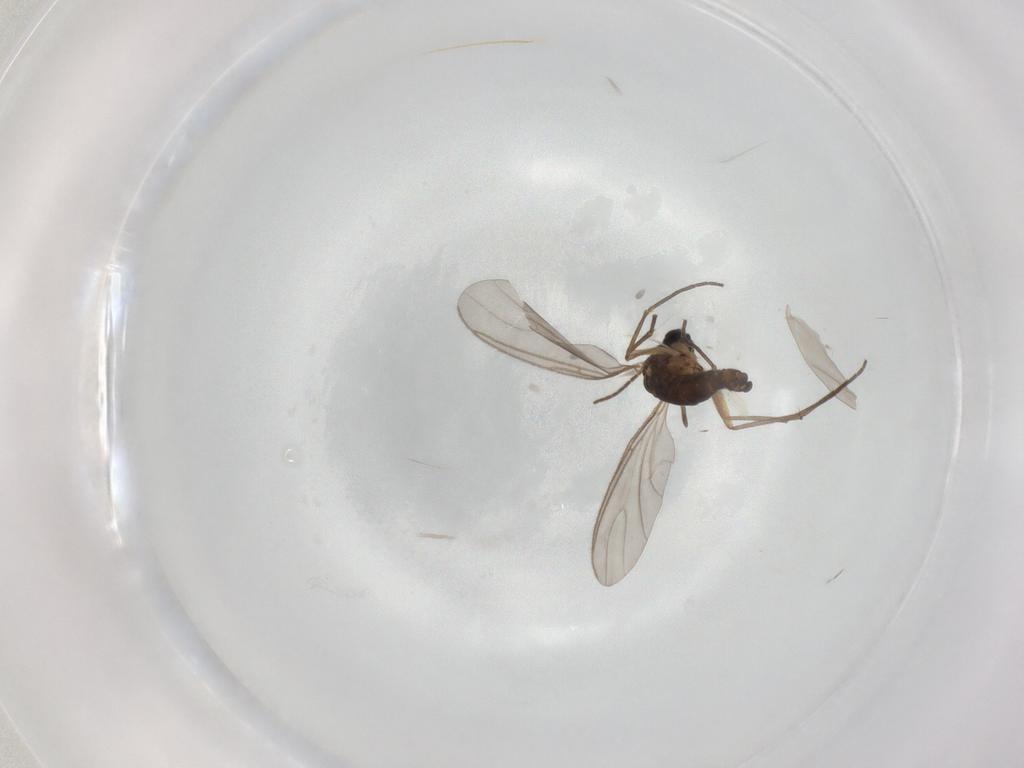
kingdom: Animalia
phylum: Arthropoda
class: Insecta
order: Diptera
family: Sciaridae
